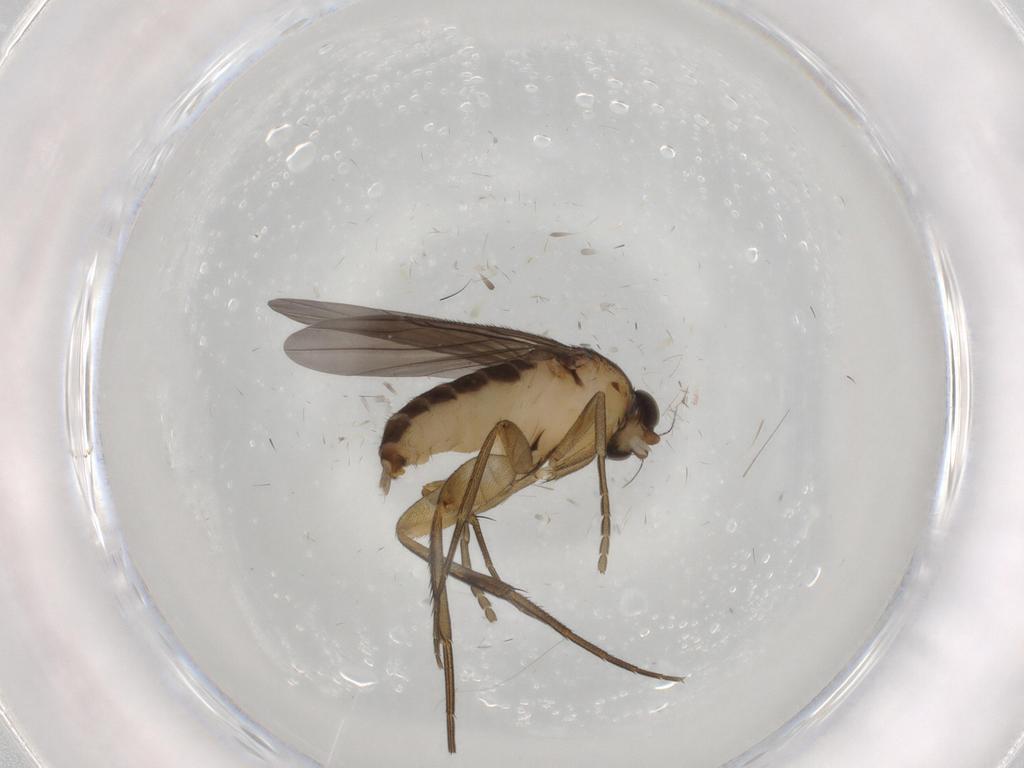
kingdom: Animalia
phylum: Arthropoda
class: Insecta
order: Diptera
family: Phoridae
